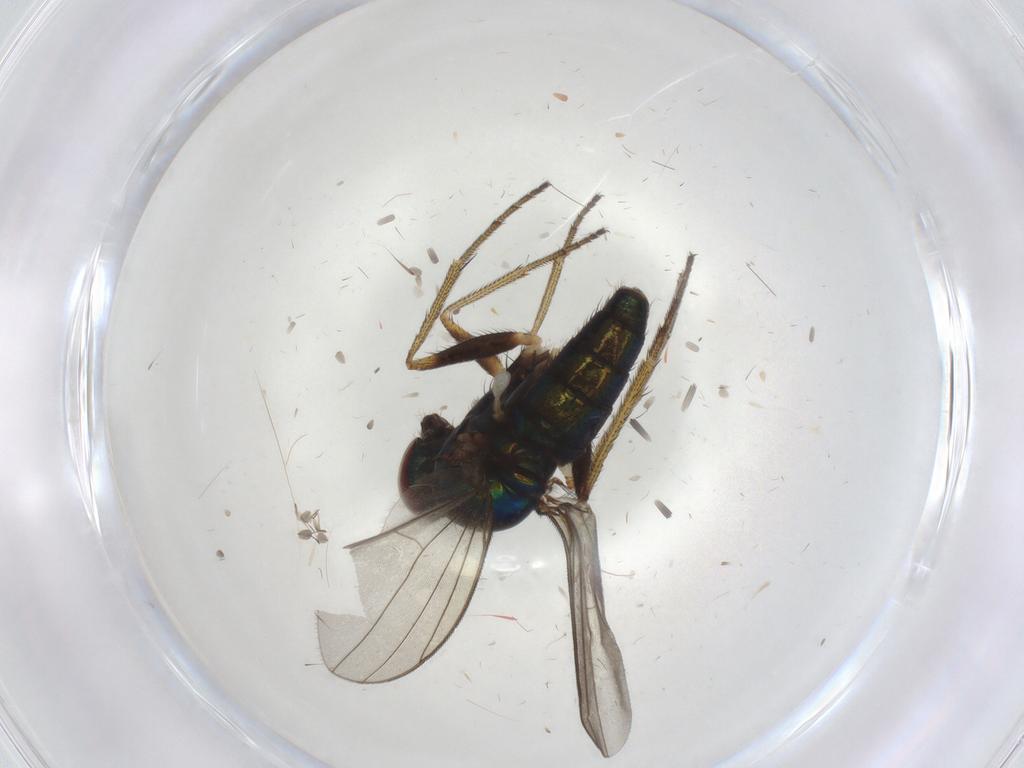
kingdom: Animalia
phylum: Arthropoda
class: Insecta
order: Diptera
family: Dolichopodidae
